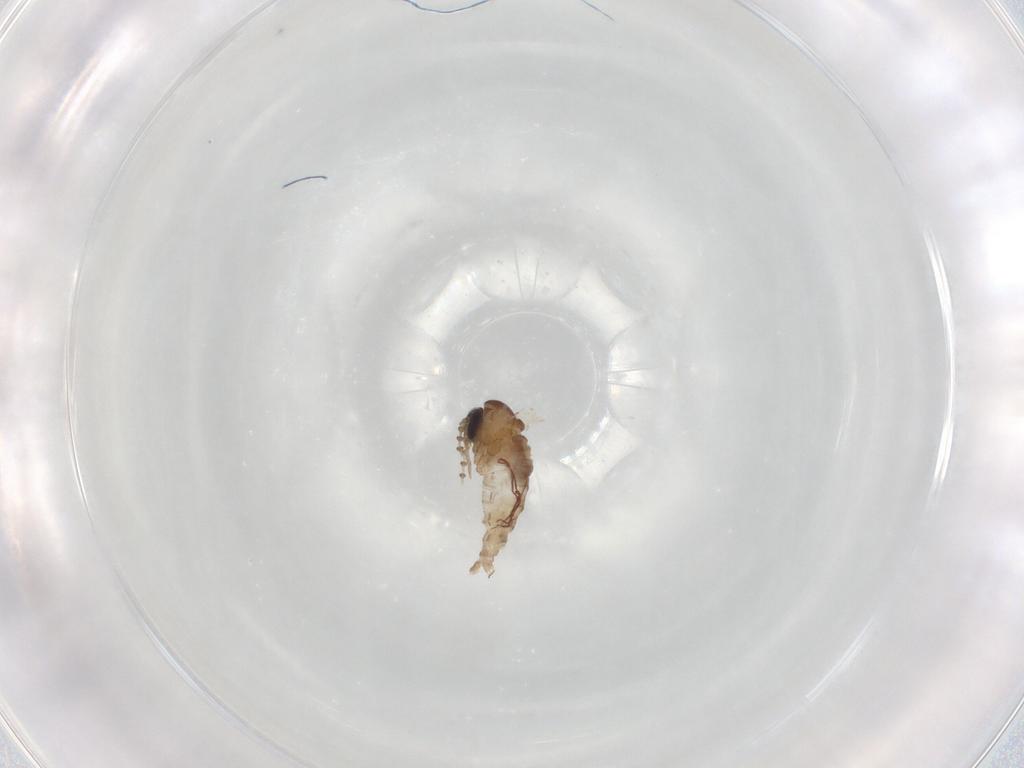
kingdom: Animalia
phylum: Arthropoda
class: Insecta
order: Diptera
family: Psychodidae
